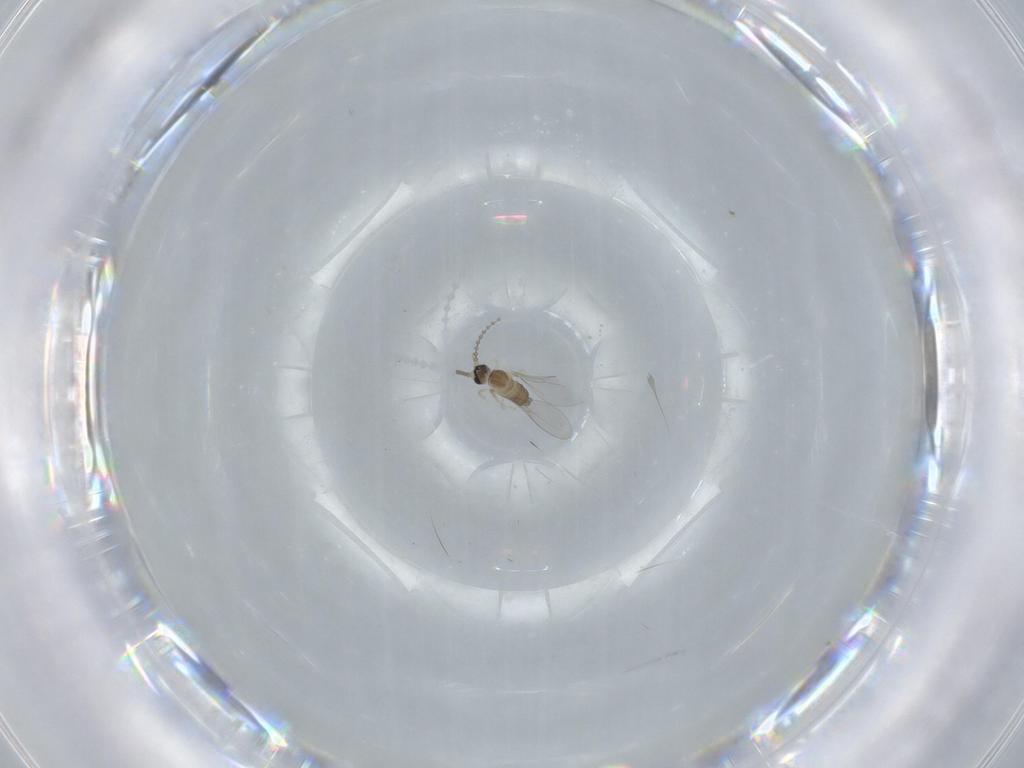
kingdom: Animalia
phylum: Arthropoda
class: Insecta
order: Diptera
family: Cecidomyiidae
